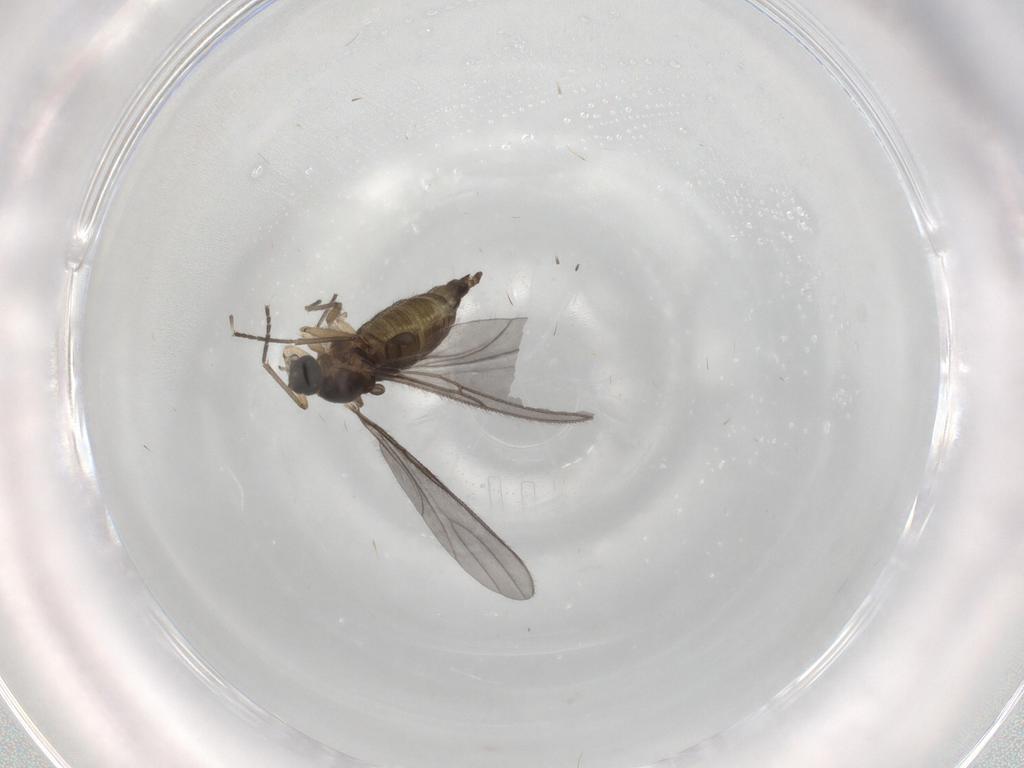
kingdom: Animalia
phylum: Arthropoda
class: Insecta
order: Diptera
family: Sciaridae
